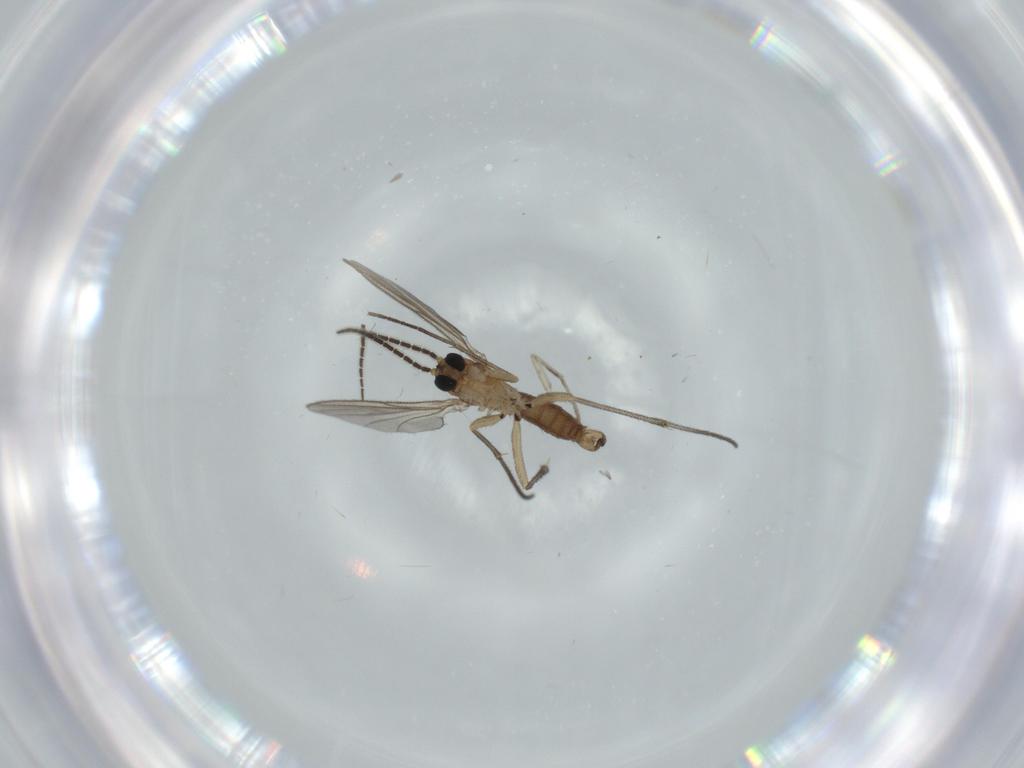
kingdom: Animalia
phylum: Arthropoda
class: Insecta
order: Diptera
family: Sciaridae
